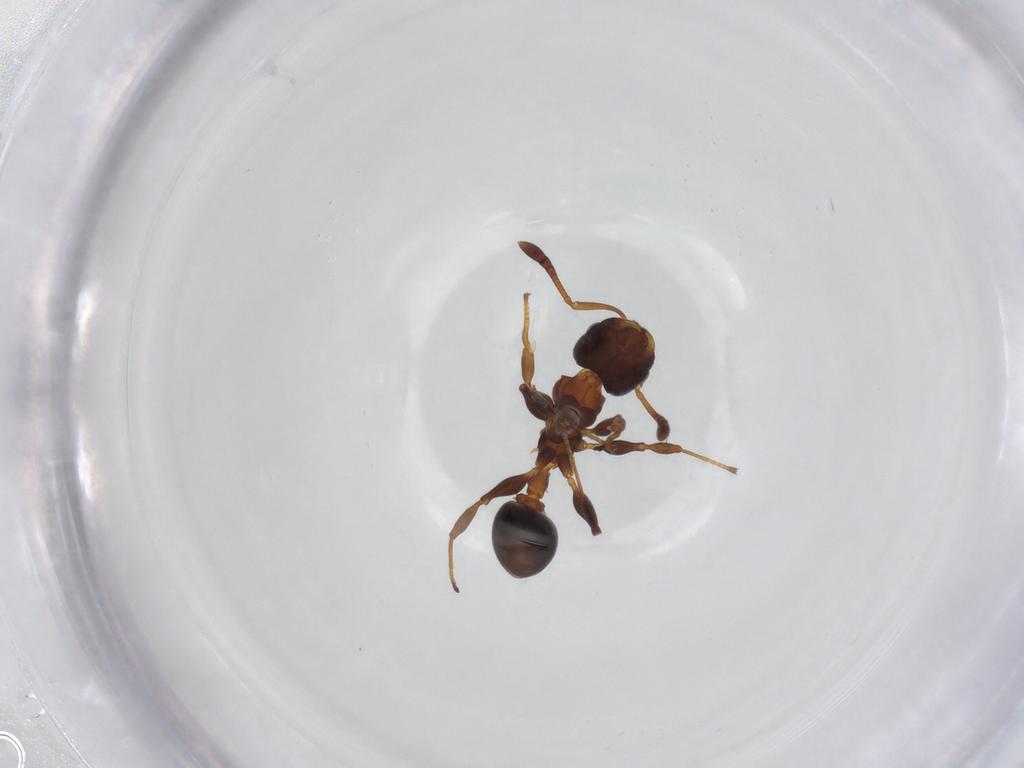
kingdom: Animalia
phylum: Arthropoda
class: Insecta
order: Hymenoptera
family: Formicidae
